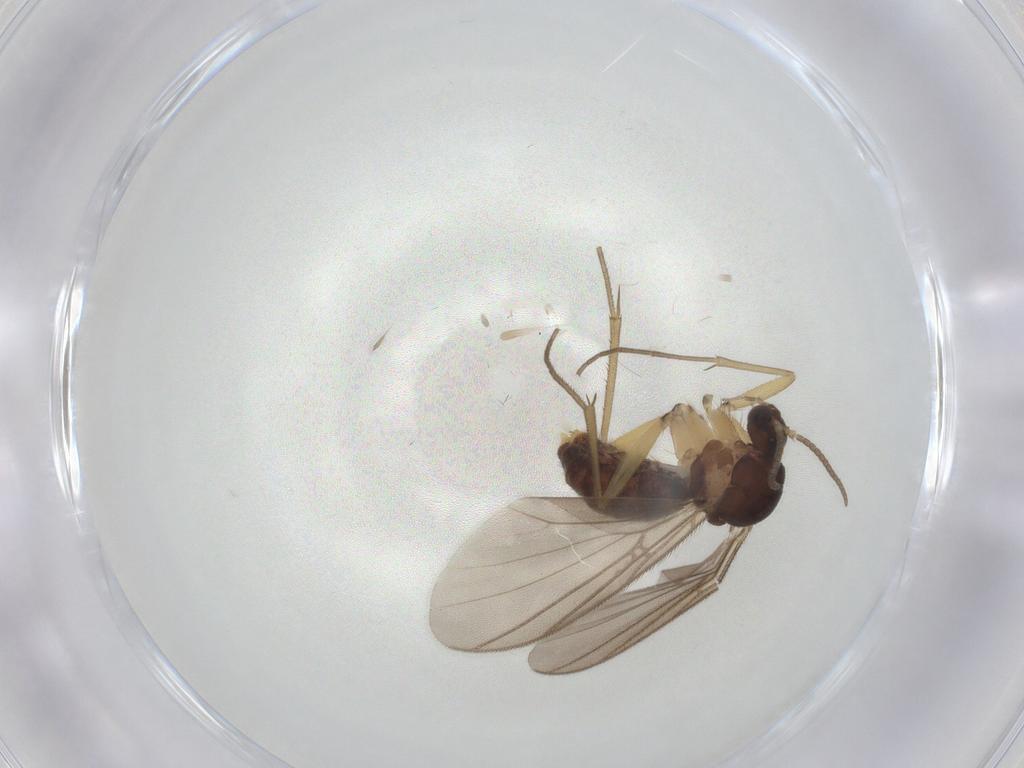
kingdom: Animalia
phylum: Arthropoda
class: Insecta
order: Diptera
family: Mycetophilidae
